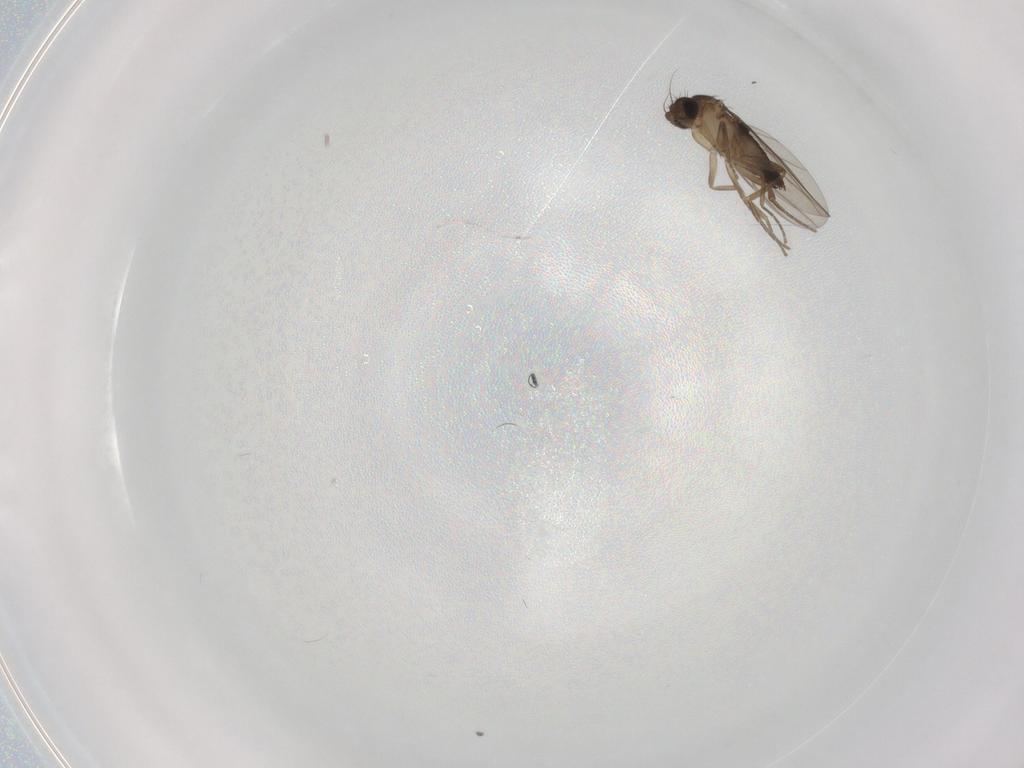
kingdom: Animalia
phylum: Arthropoda
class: Insecta
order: Diptera
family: Phoridae
